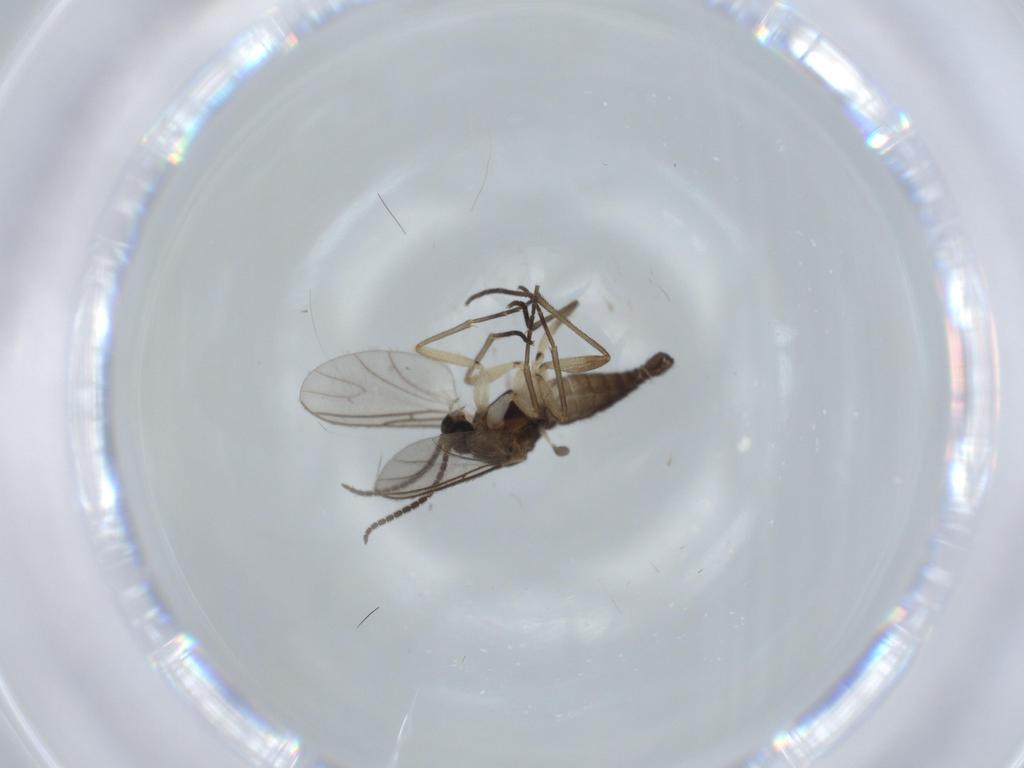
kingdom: Animalia
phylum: Arthropoda
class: Insecta
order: Diptera
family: Sciaridae
